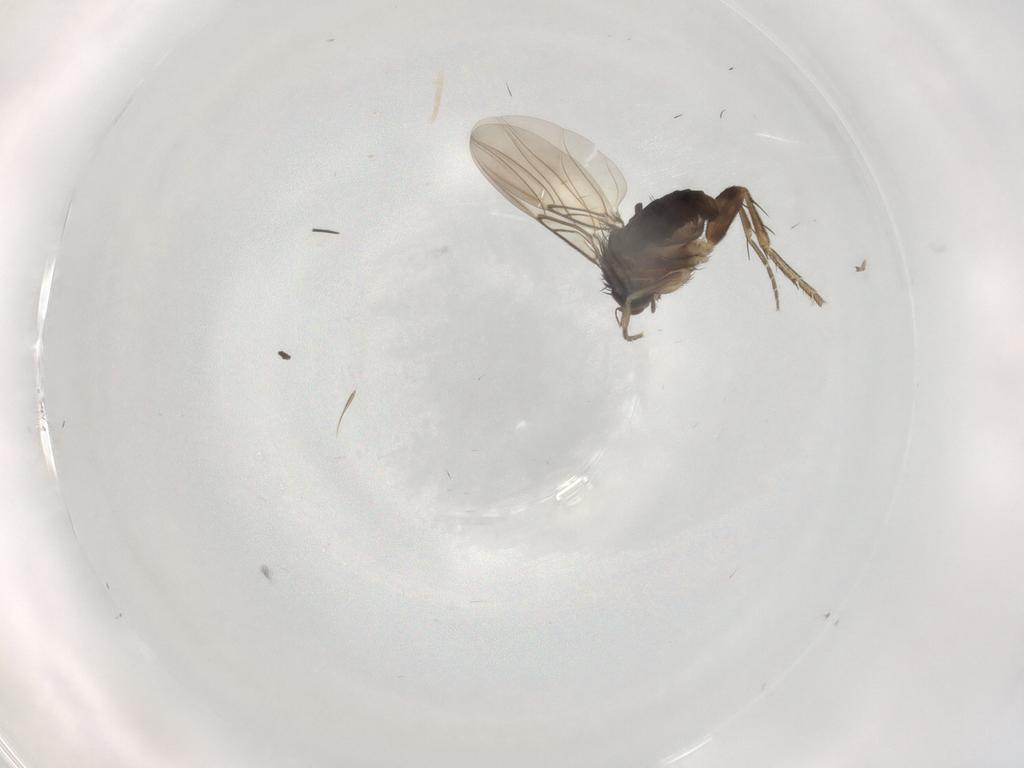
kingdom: Animalia
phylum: Arthropoda
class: Insecta
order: Diptera
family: Phoridae
